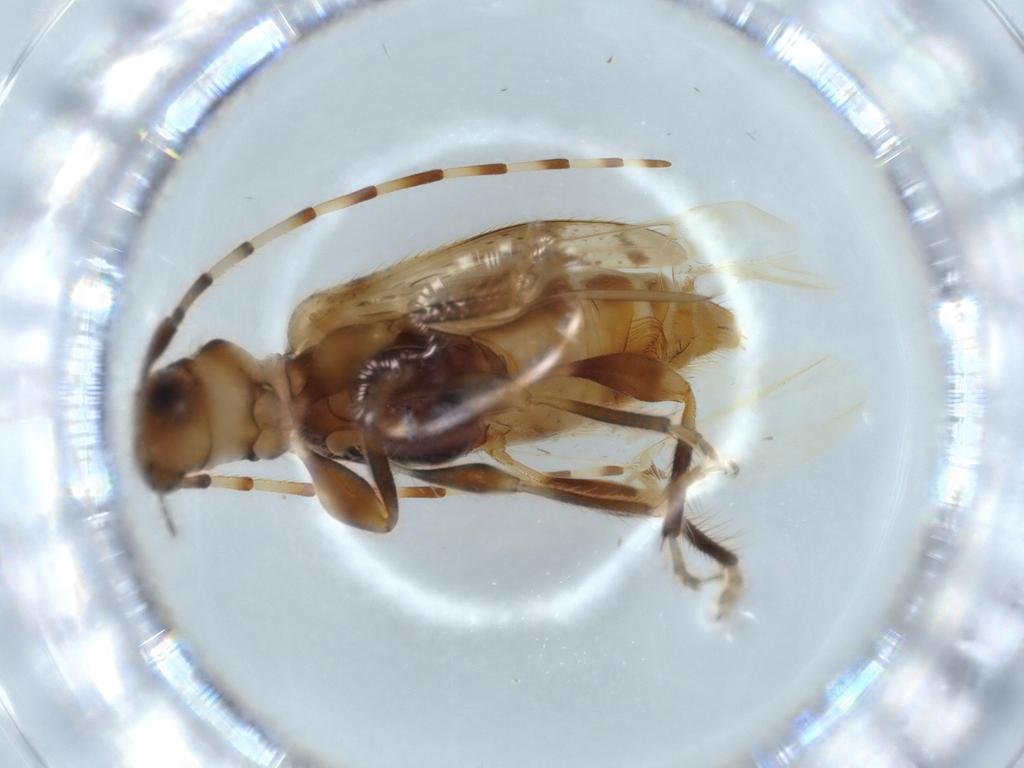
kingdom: Animalia
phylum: Arthropoda
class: Insecta
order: Coleoptera
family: Cerambycidae
